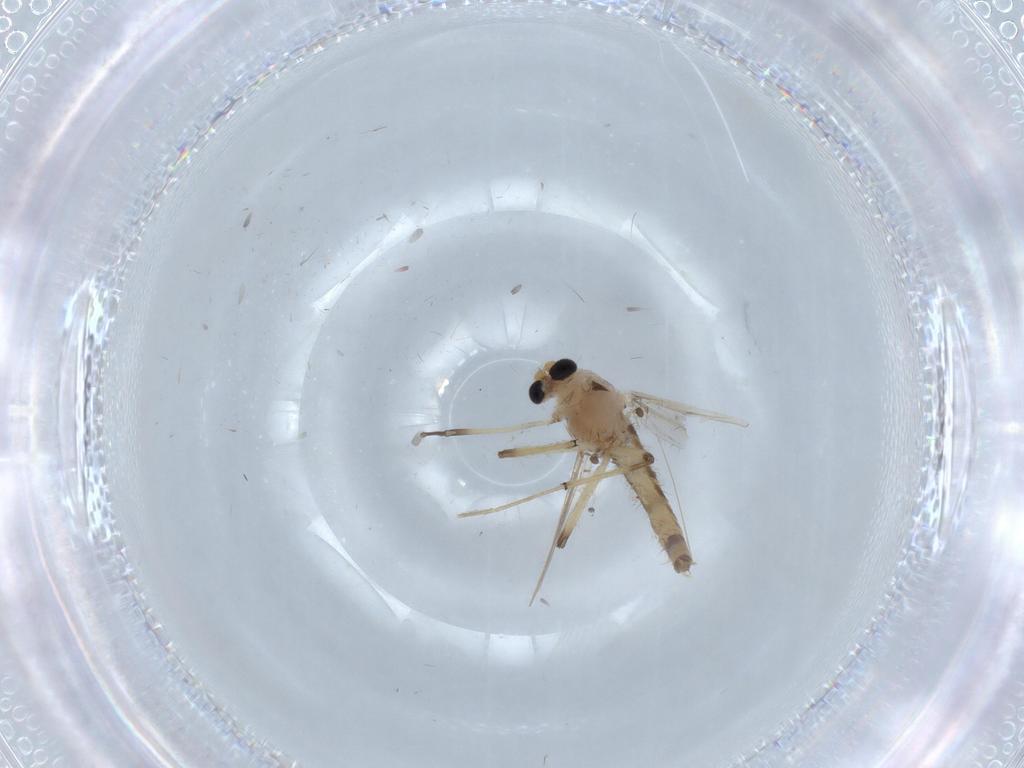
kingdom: Animalia
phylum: Arthropoda
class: Insecta
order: Diptera
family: Chironomidae
